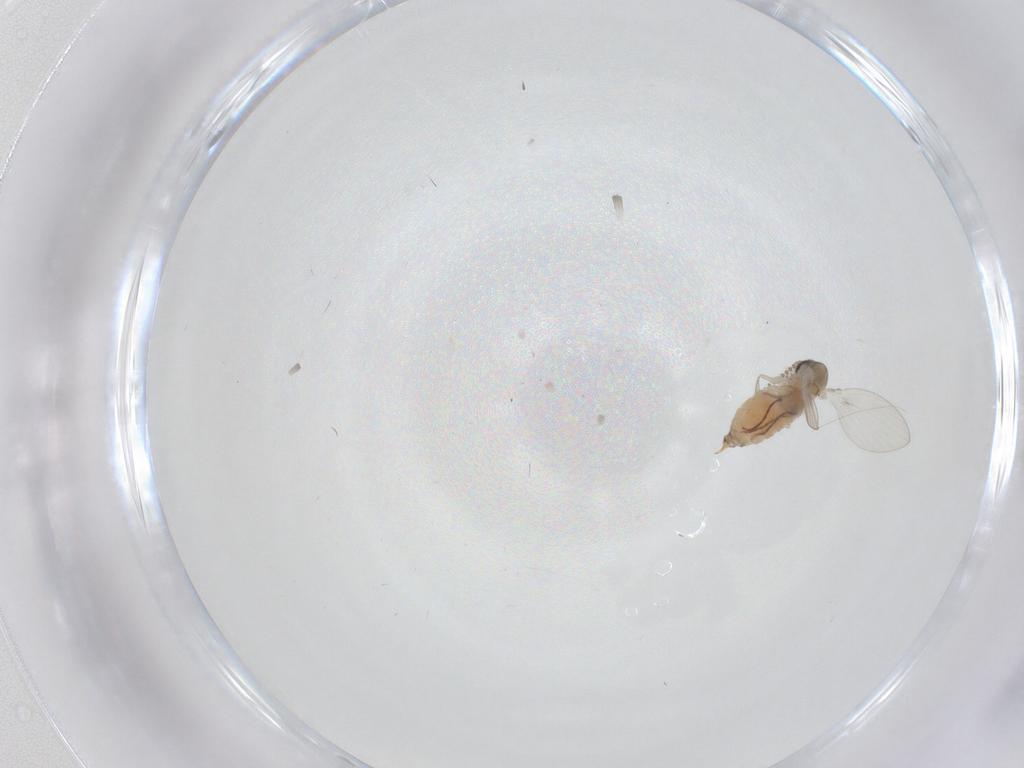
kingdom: Animalia
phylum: Arthropoda
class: Insecta
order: Diptera
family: Psychodidae
